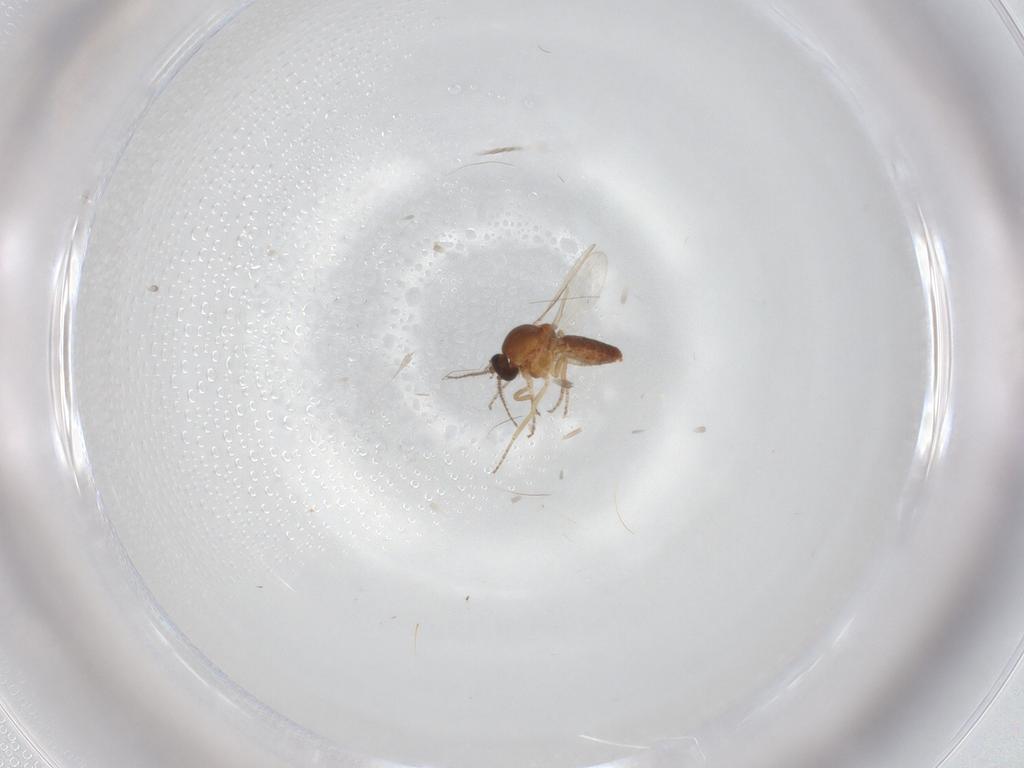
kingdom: Animalia
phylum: Arthropoda
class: Insecta
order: Diptera
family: Ceratopogonidae
